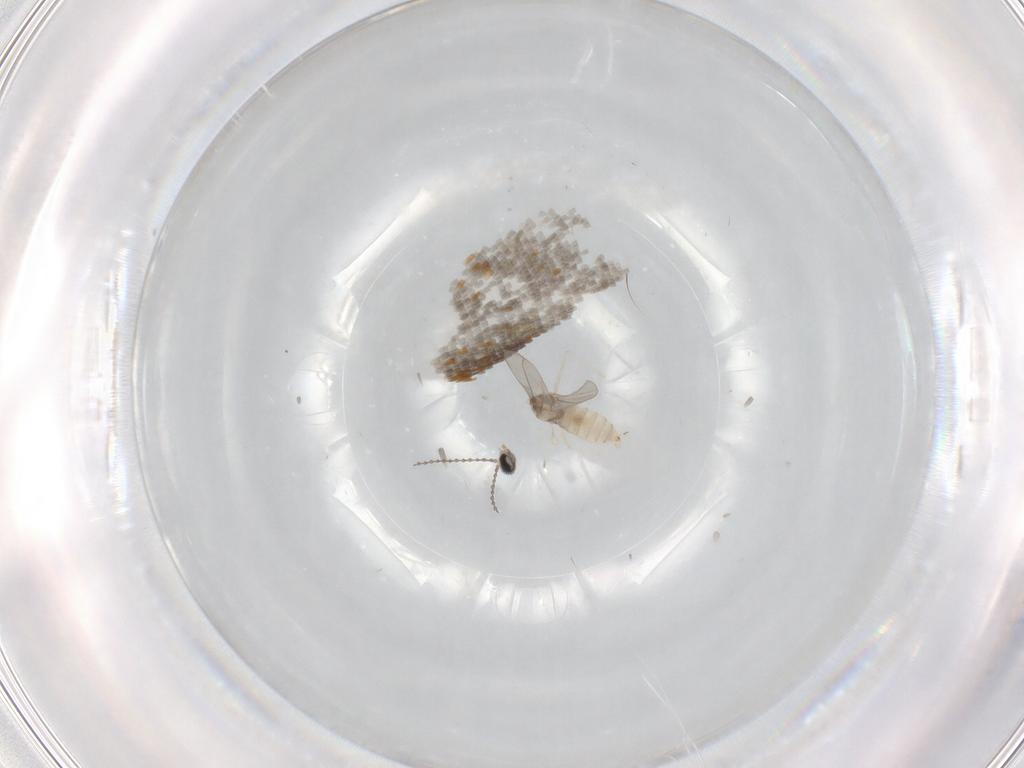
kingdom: Animalia
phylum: Arthropoda
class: Insecta
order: Diptera
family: Cecidomyiidae
